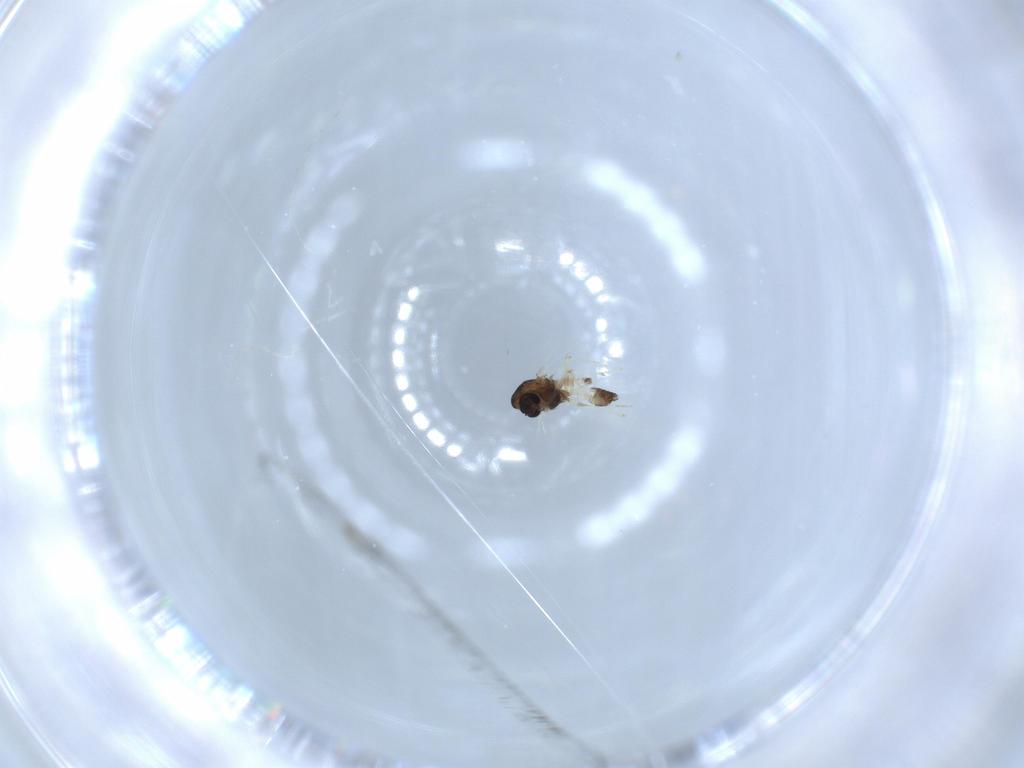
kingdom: Animalia
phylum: Arthropoda
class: Insecta
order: Diptera
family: Chironomidae
